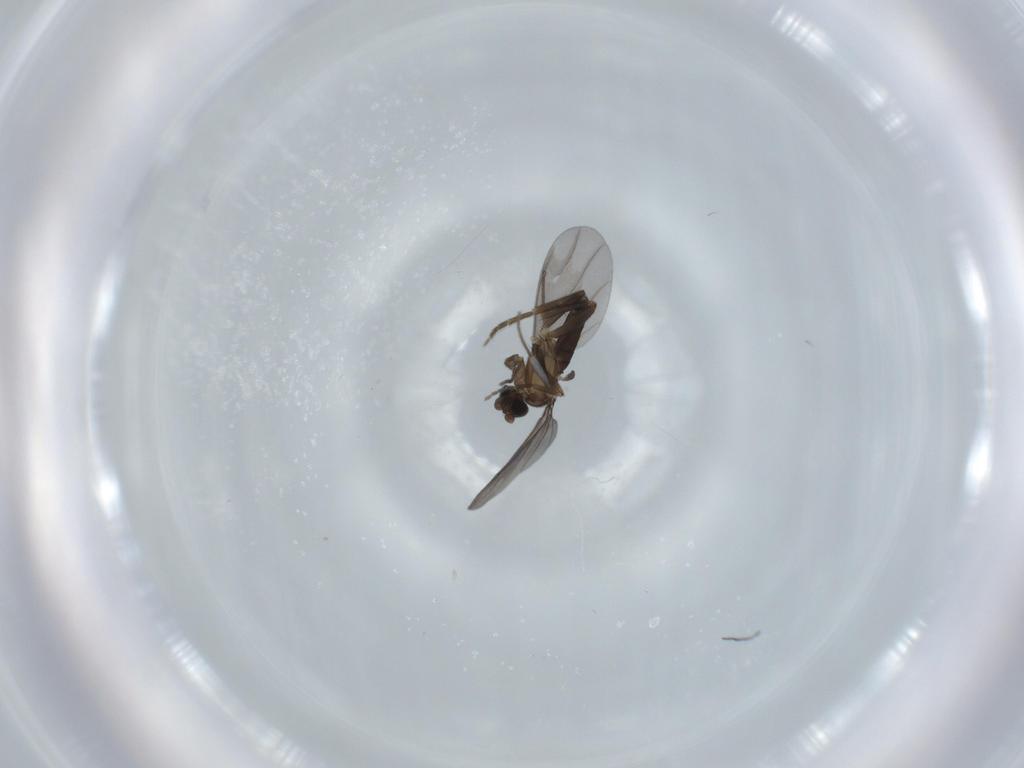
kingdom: Animalia
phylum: Arthropoda
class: Insecta
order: Diptera
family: Phoridae
